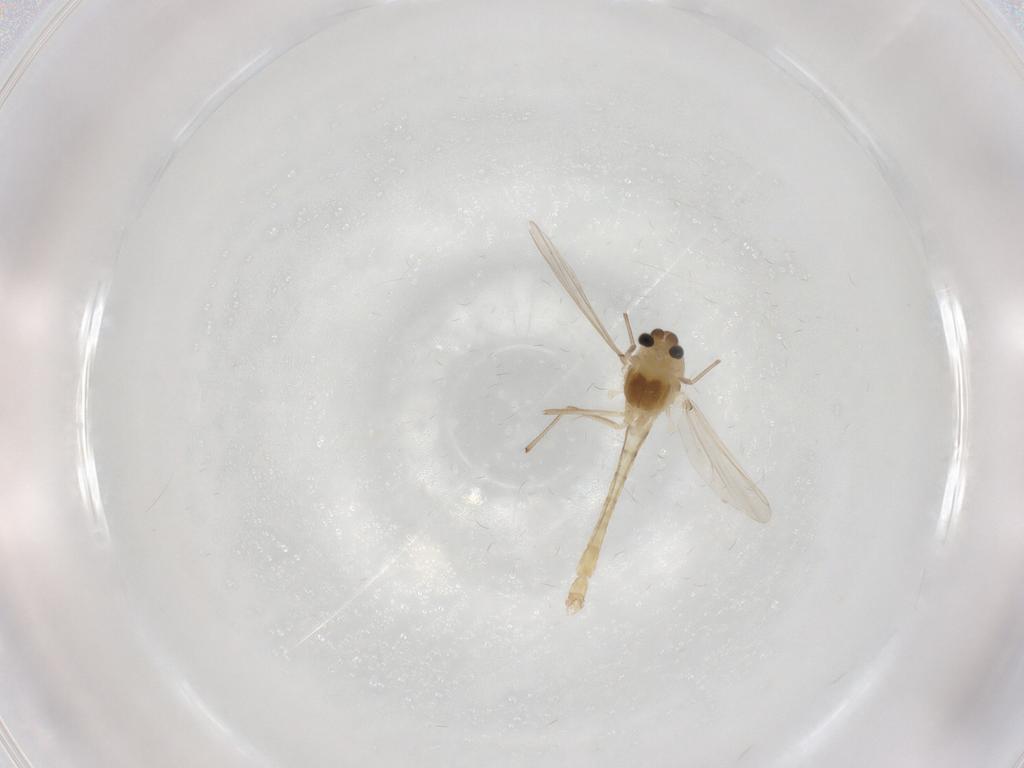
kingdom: Animalia
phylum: Arthropoda
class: Insecta
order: Diptera
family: Chironomidae
